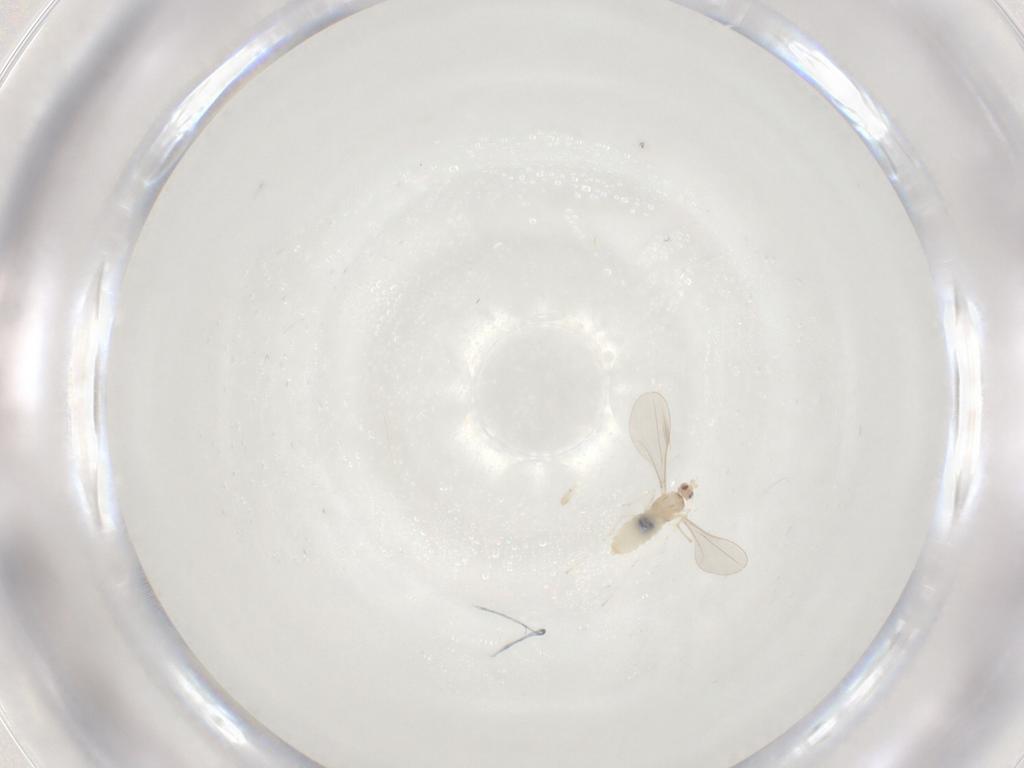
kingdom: Animalia
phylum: Arthropoda
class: Insecta
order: Diptera
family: Cecidomyiidae
